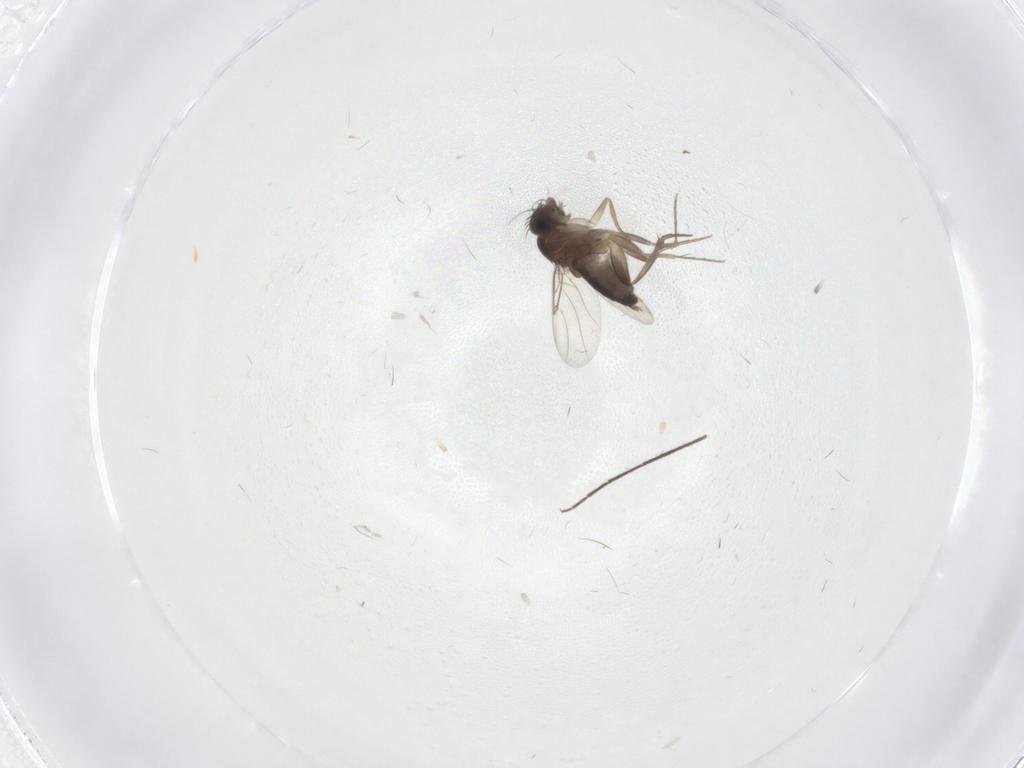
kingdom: Animalia
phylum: Arthropoda
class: Insecta
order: Diptera
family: Phoridae
